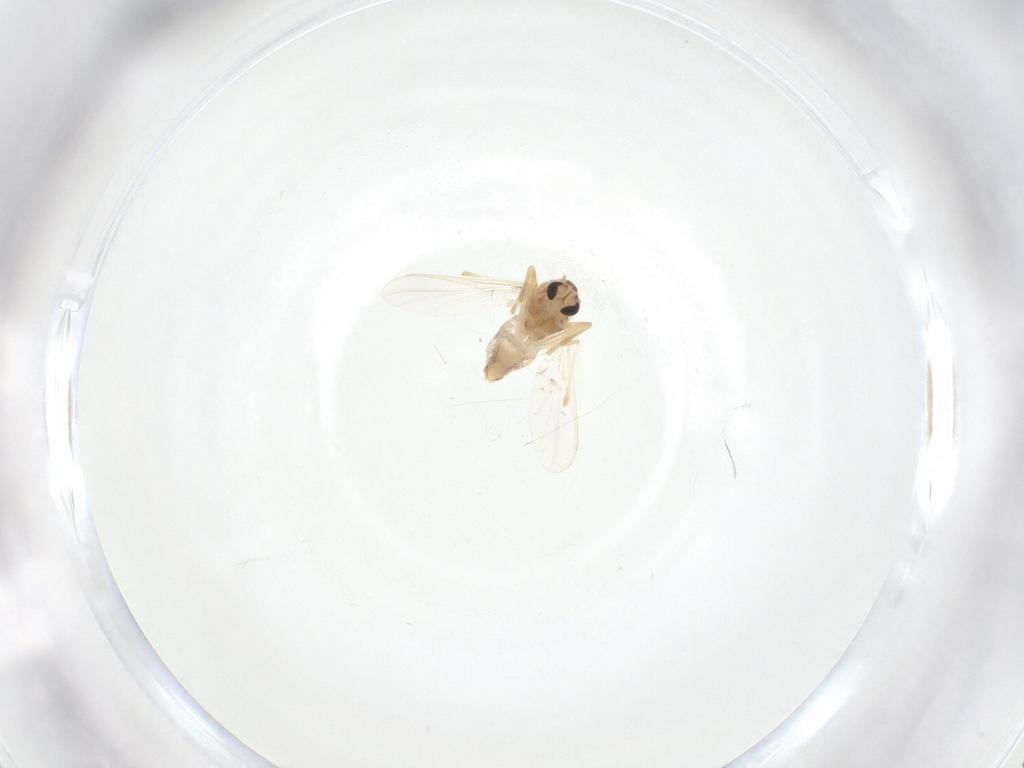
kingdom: Animalia
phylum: Arthropoda
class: Insecta
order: Diptera
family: Chironomidae
